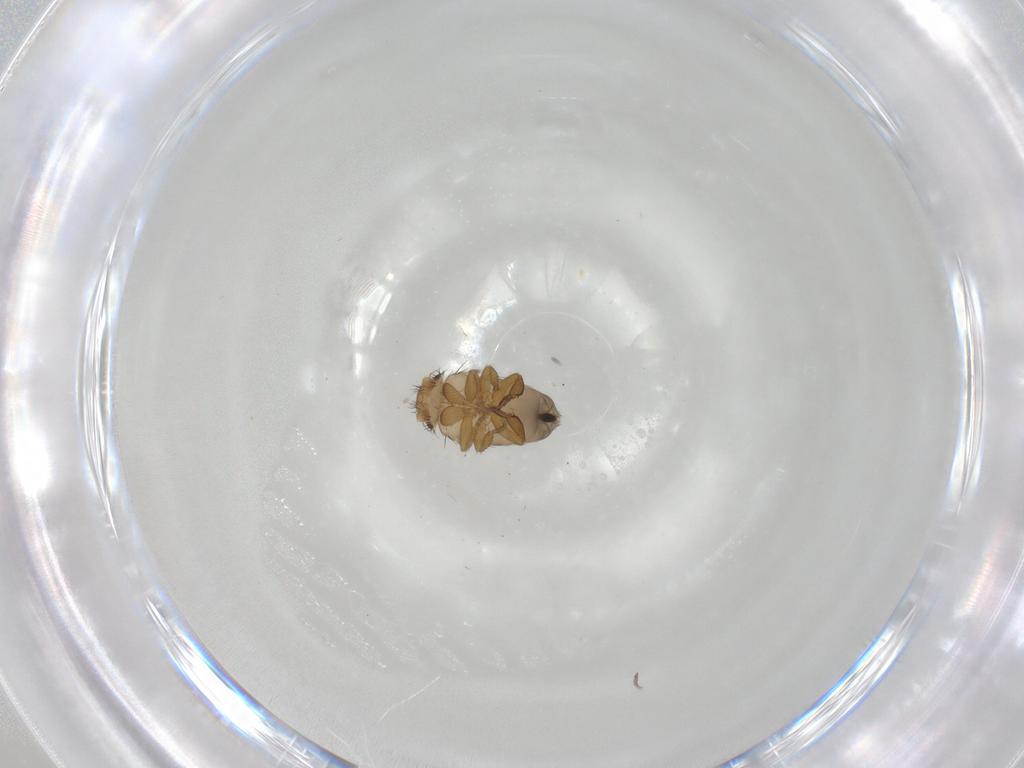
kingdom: Animalia
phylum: Arthropoda
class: Insecta
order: Diptera
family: Phoridae
